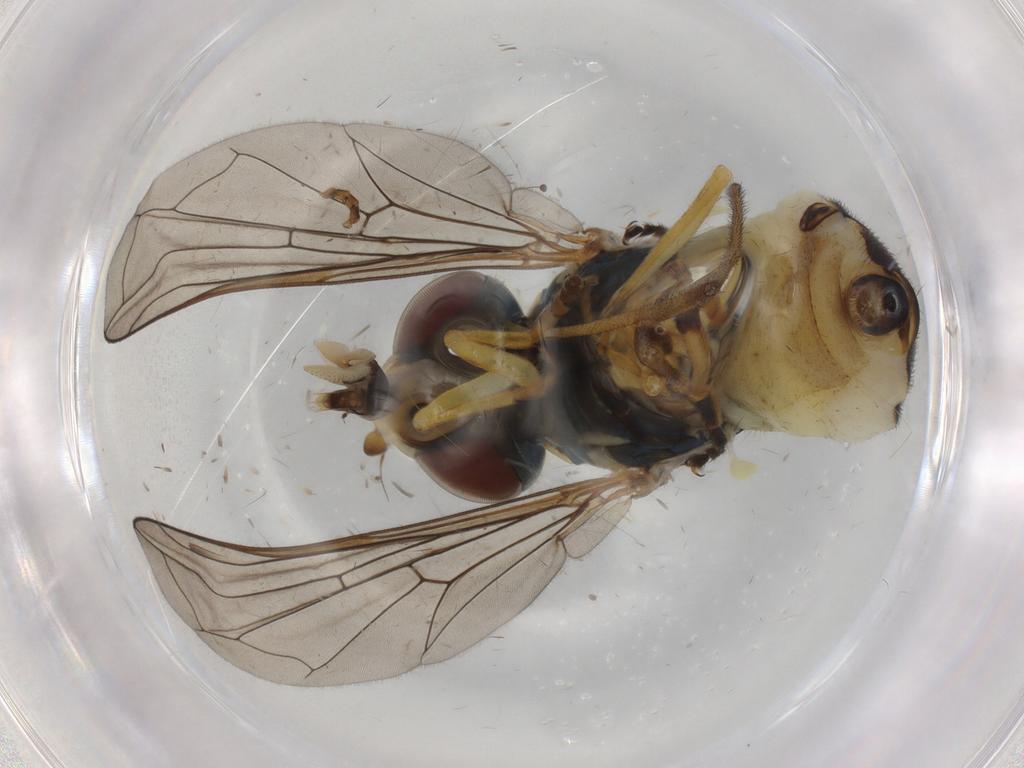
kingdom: Animalia
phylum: Arthropoda
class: Insecta
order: Diptera
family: Syrphidae
